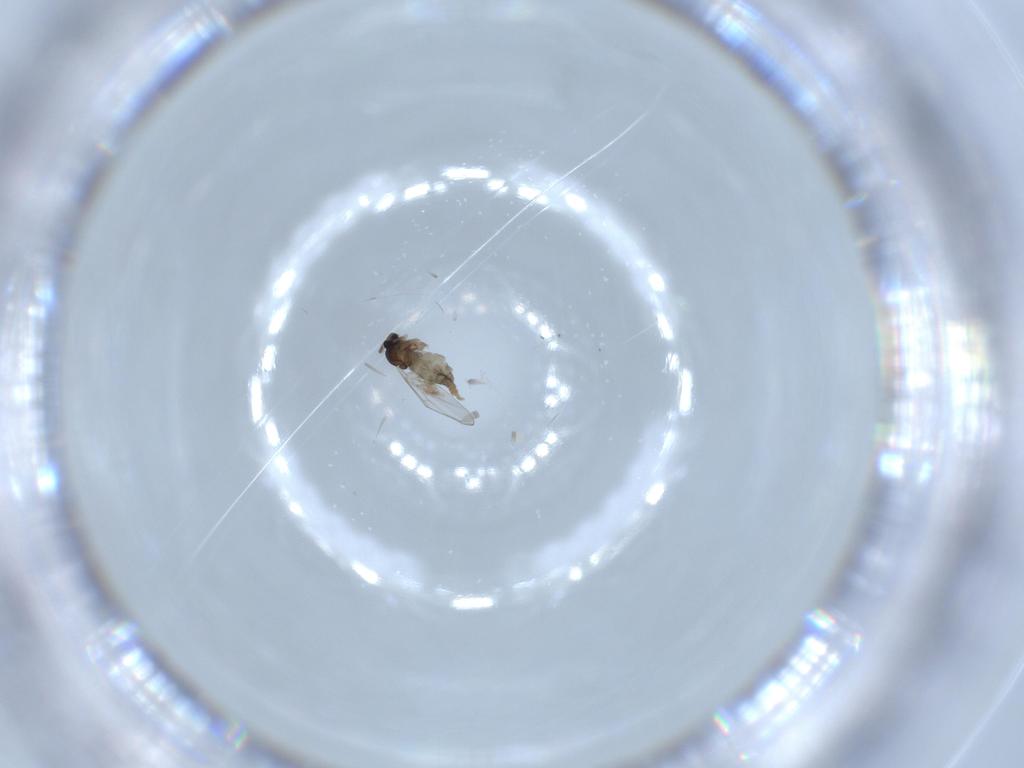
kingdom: Animalia
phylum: Arthropoda
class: Insecta
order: Diptera
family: Cecidomyiidae
